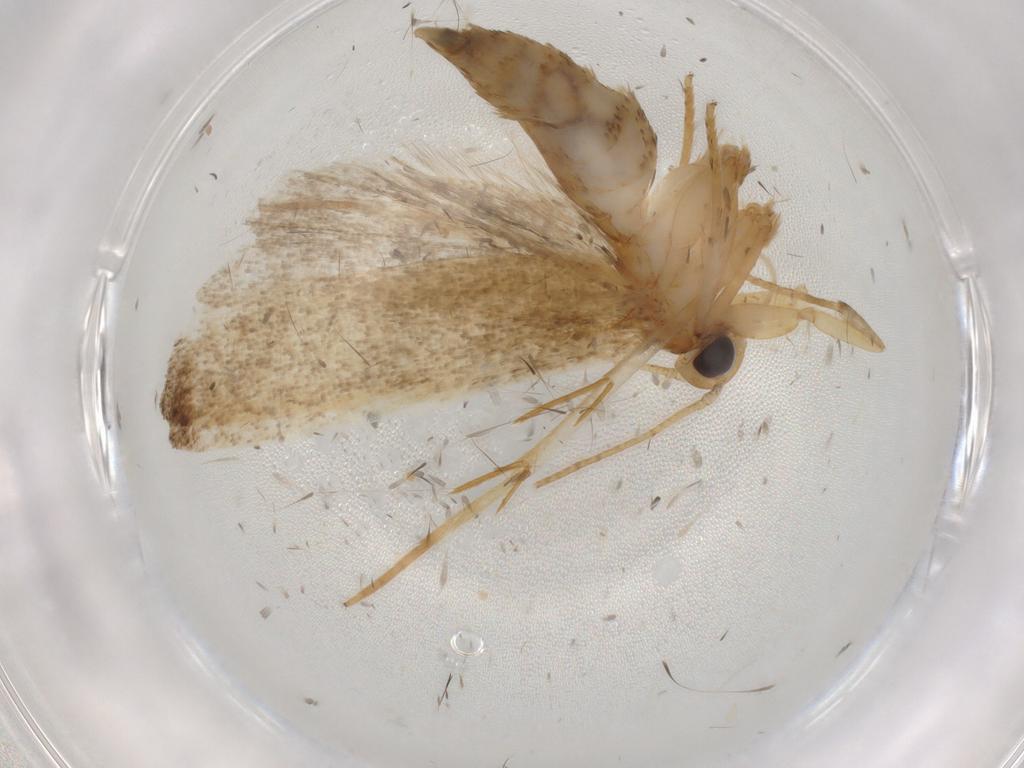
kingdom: Animalia
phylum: Arthropoda
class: Insecta
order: Lepidoptera
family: Autostichidae
